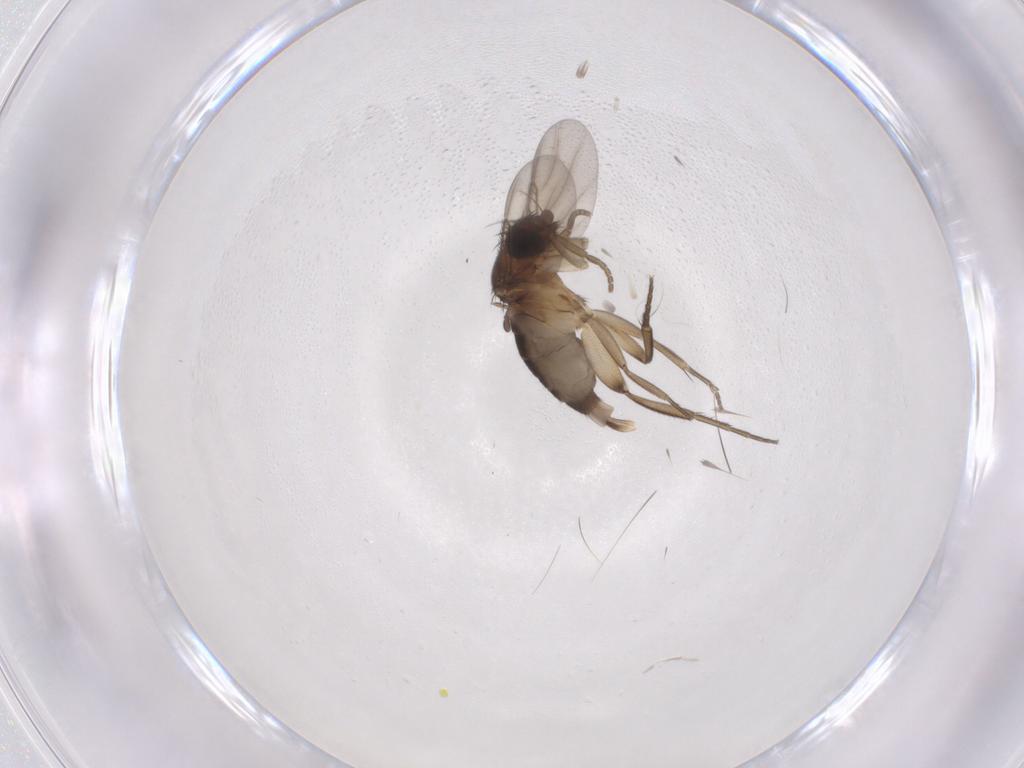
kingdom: Animalia
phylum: Arthropoda
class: Insecta
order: Diptera
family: Phoridae
